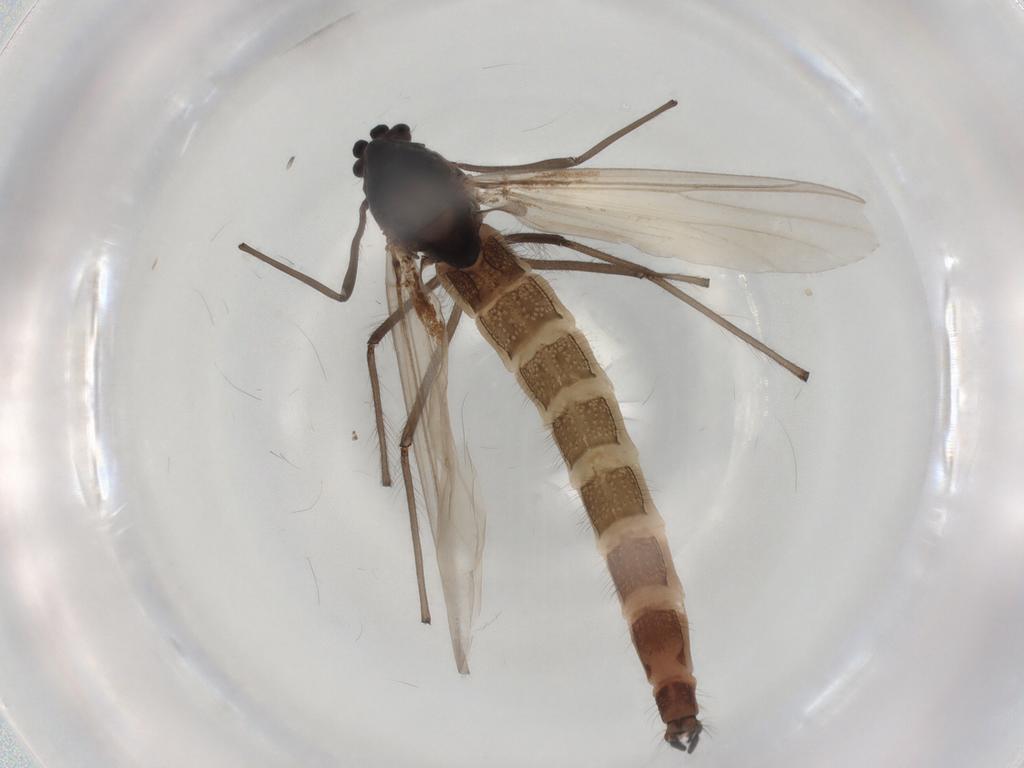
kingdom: Animalia
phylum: Arthropoda
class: Insecta
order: Diptera
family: Chironomidae
